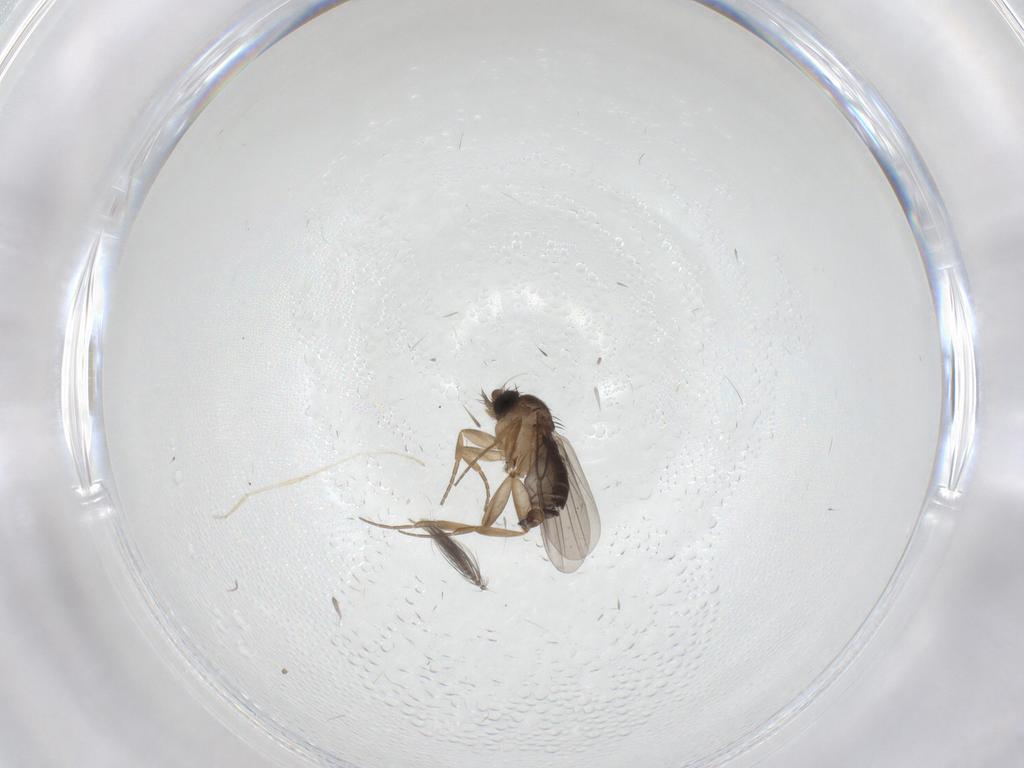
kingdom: Animalia
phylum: Arthropoda
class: Insecta
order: Diptera
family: Ceratopogonidae
